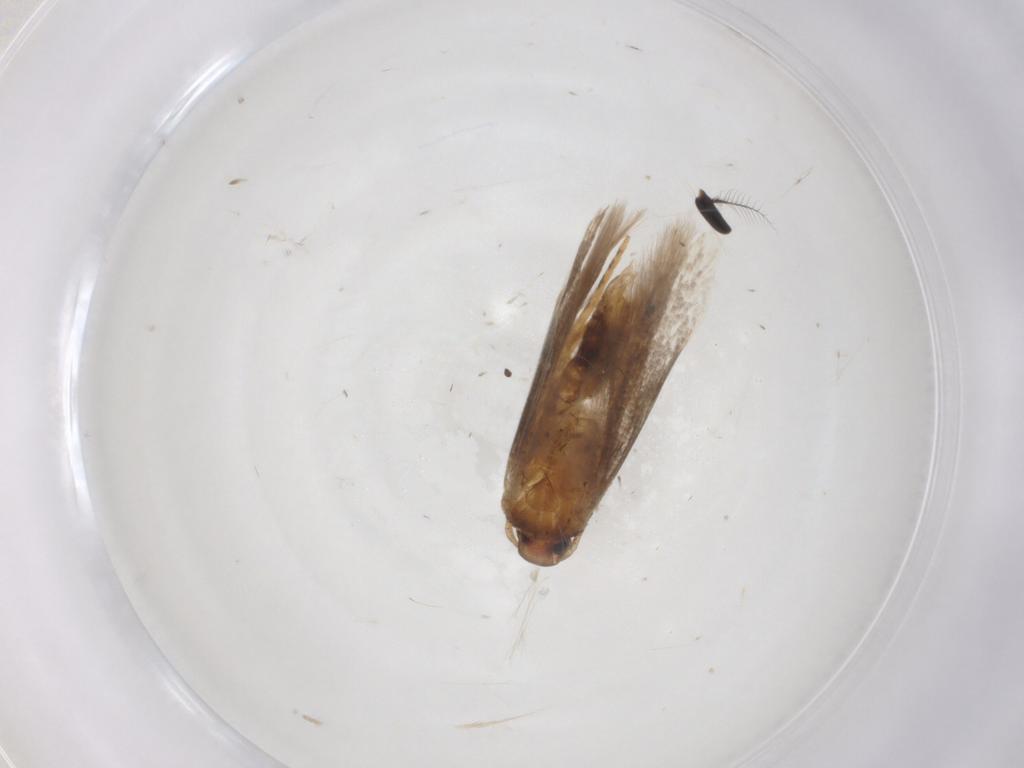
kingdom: Animalia
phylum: Arthropoda
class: Insecta
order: Lepidoptera
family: Gelechiidae
